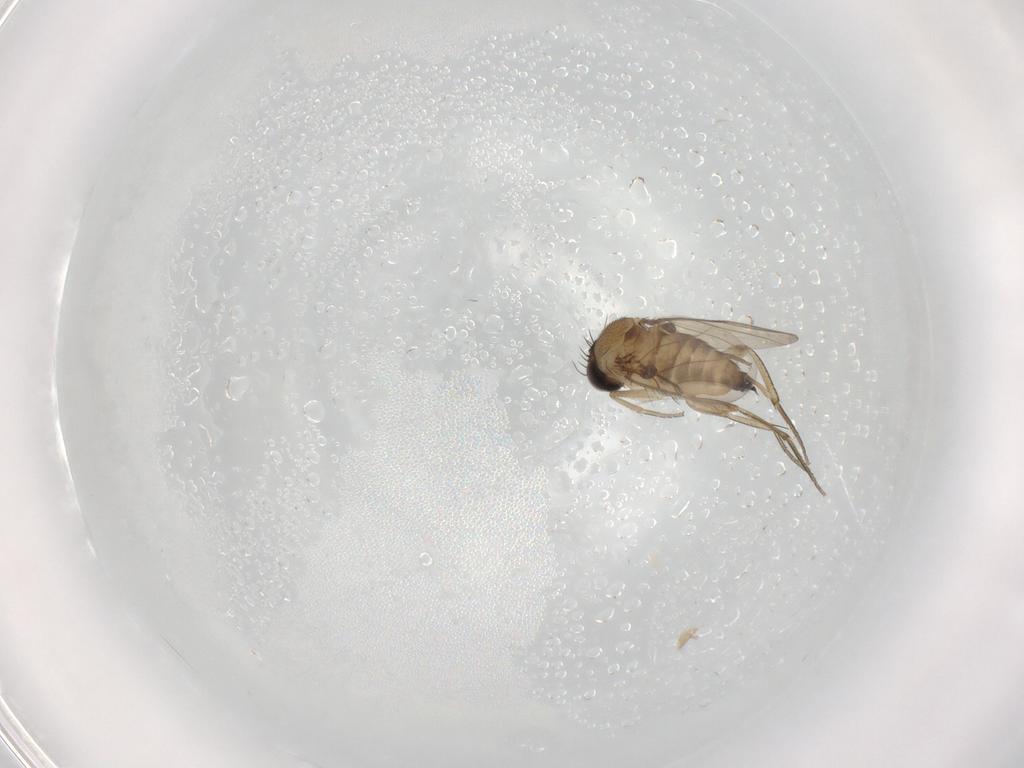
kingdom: Animalia
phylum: Arthropoda
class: Insecta
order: Diptera
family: Phoridae
